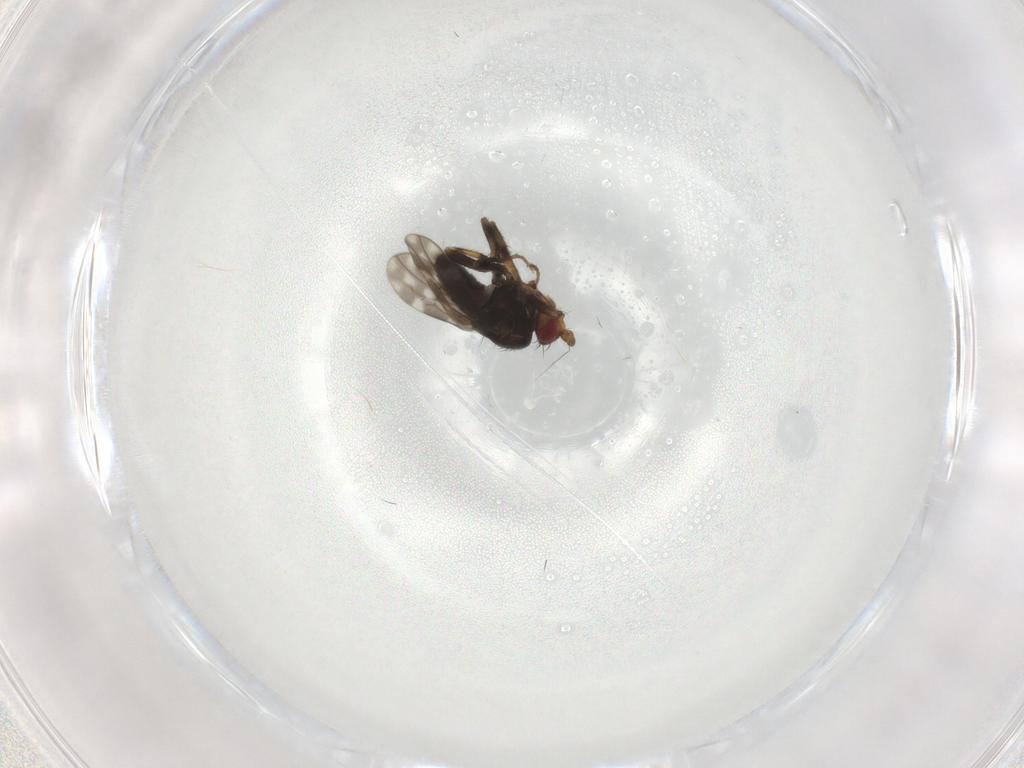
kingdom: Animalia
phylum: Arthropoda
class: Insecta
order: Diptera
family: Sphaeroceridae
